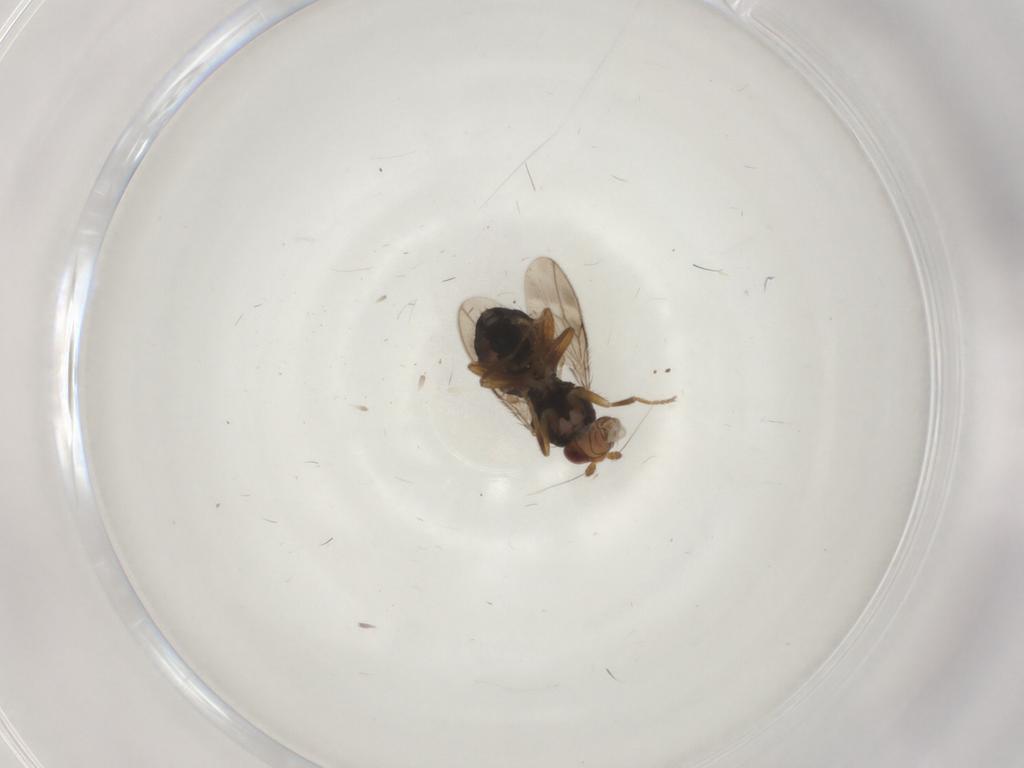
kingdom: Animalia
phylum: Arthropoda
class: Insecta
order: Diptera
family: Sphaeroceridae
